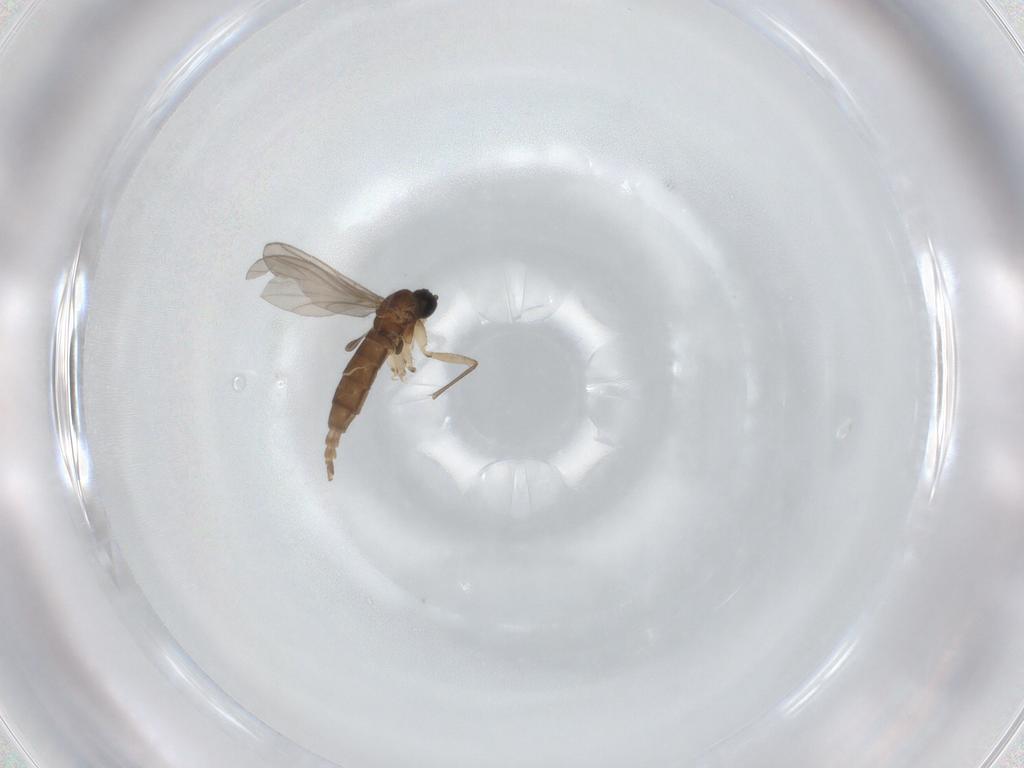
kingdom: Animalia
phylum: Arthropoda
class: Insecta
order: Diptera
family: Sciaridae
